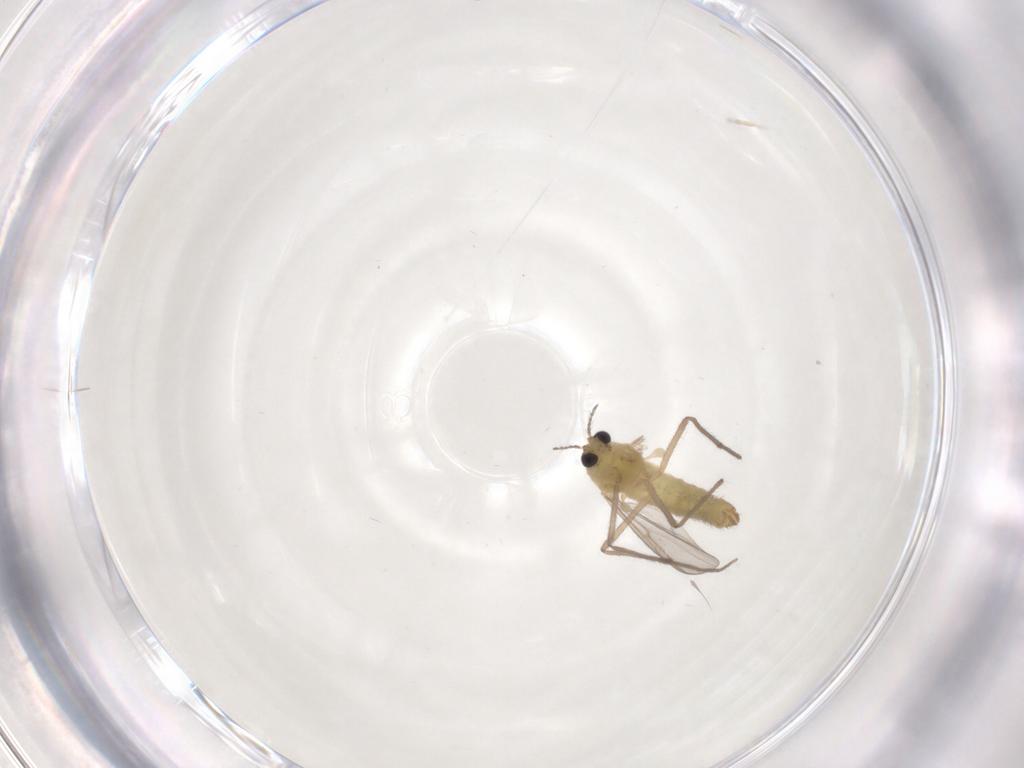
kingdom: Animalia
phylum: Arthropoda
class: Insecta
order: Diptera
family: Chironomidae
